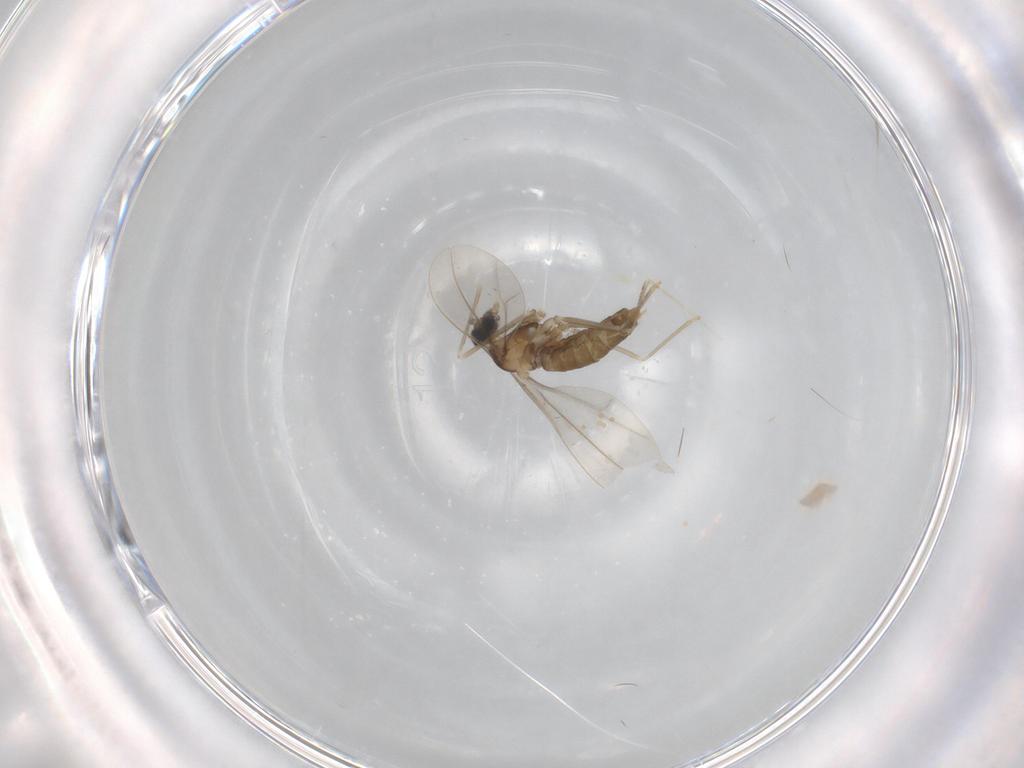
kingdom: Animalia
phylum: Arthropoda
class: Insecta
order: Diptera
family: Cecidomyiidae
